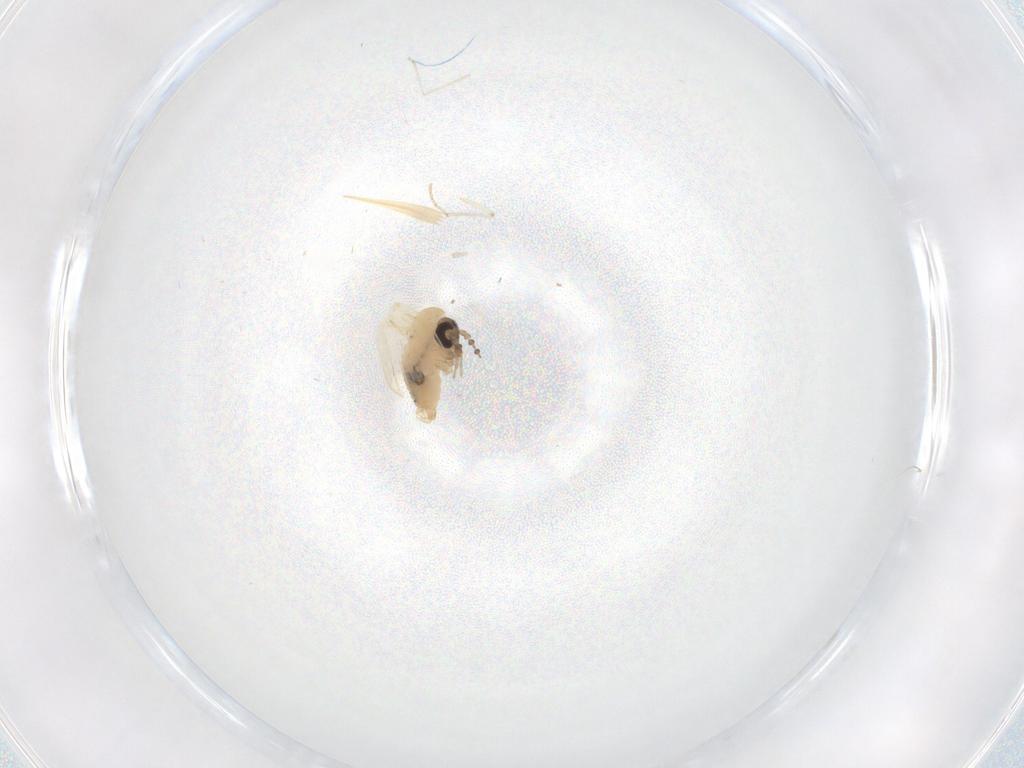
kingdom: Animalia
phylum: Arthropoda
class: Insecta
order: Diptera
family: Psychodidae
